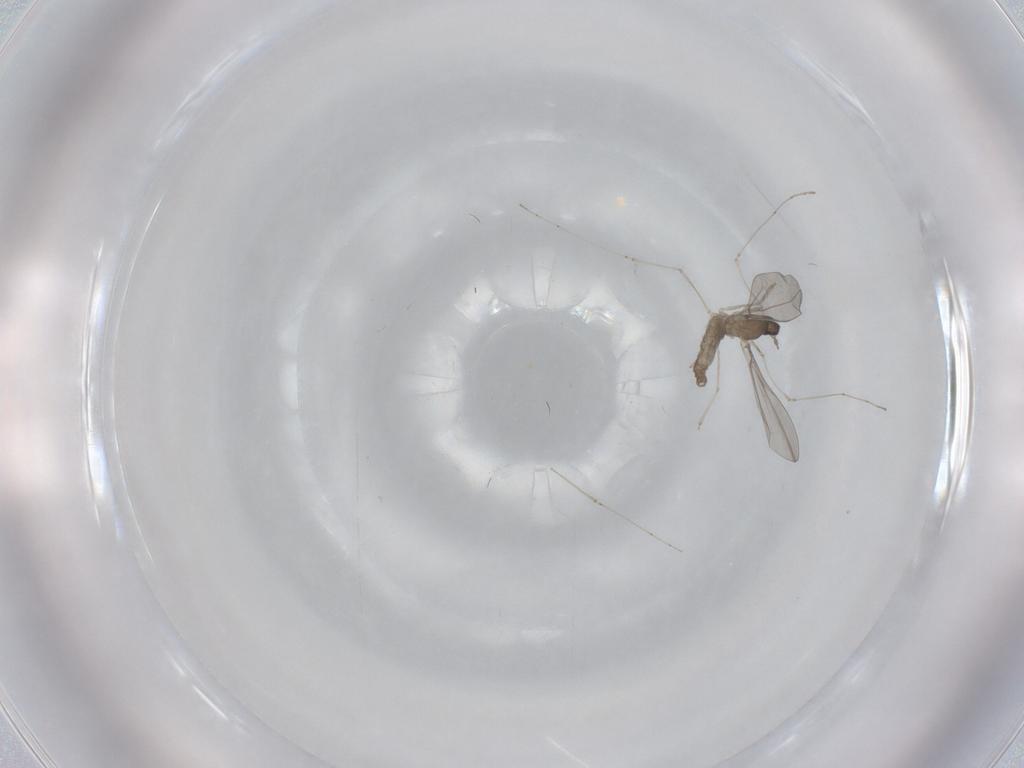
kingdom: Animalia
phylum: Arthropoda
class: Insecta
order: Diptera
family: Cecidomyiidae
